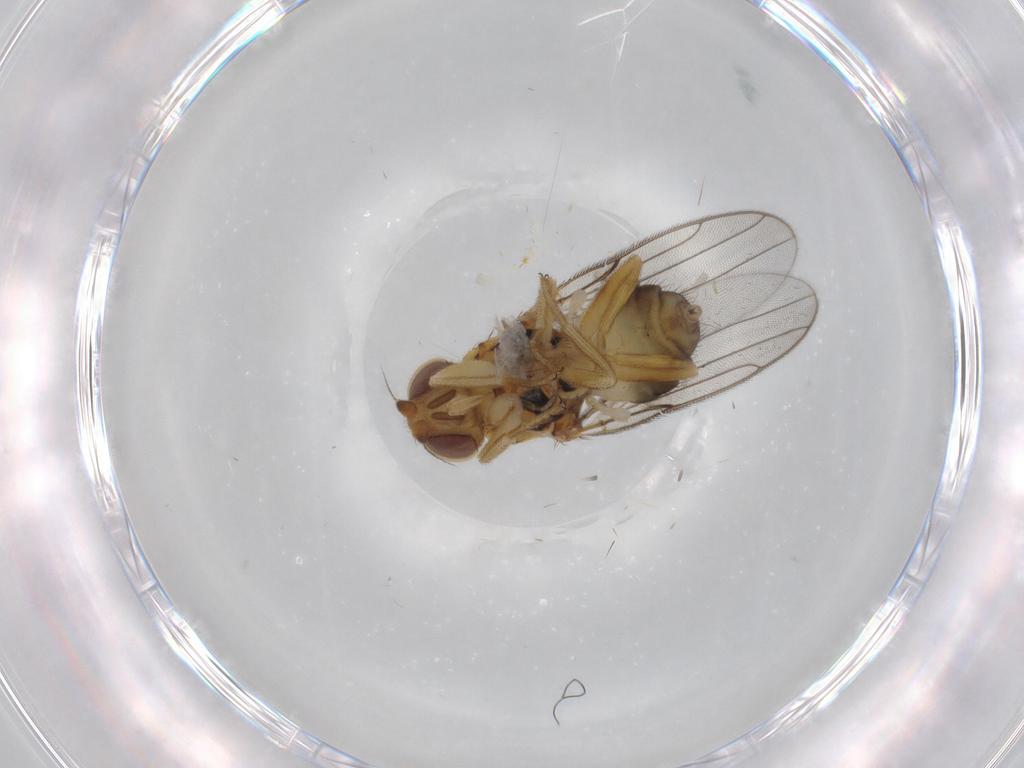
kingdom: Animalia
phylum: Arthropoda
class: Insecta
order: Diptera
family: Chloropidae
